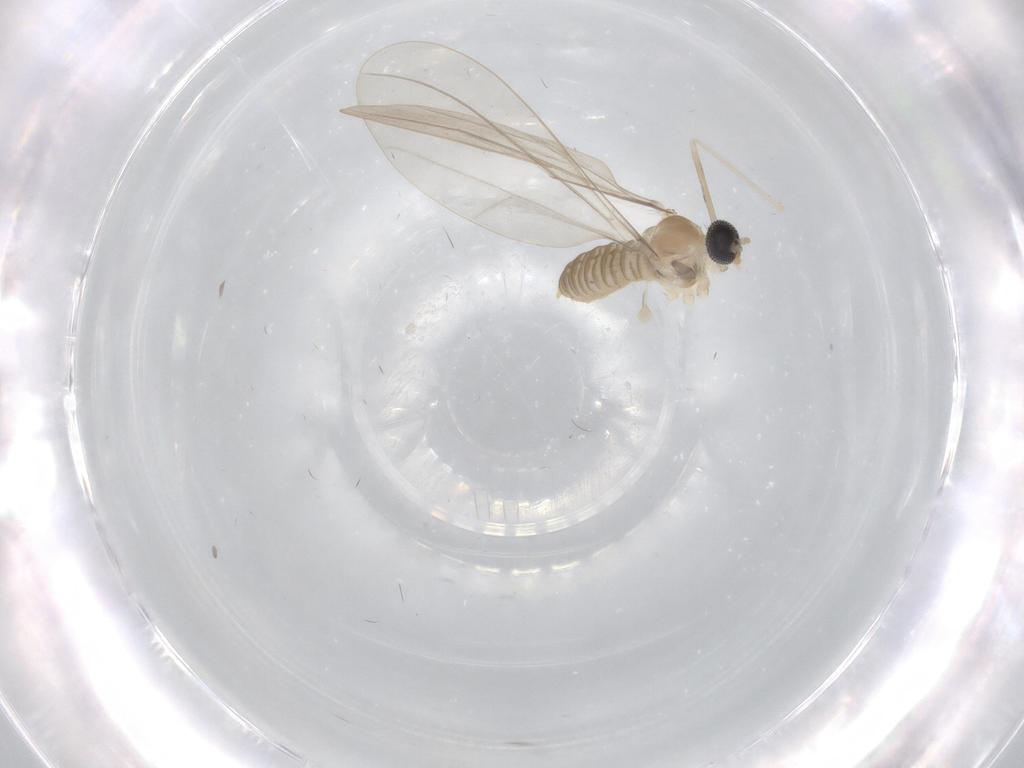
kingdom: Animalia
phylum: Arthropoda
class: Insecta
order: Diptera
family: Cecidomyiidae
